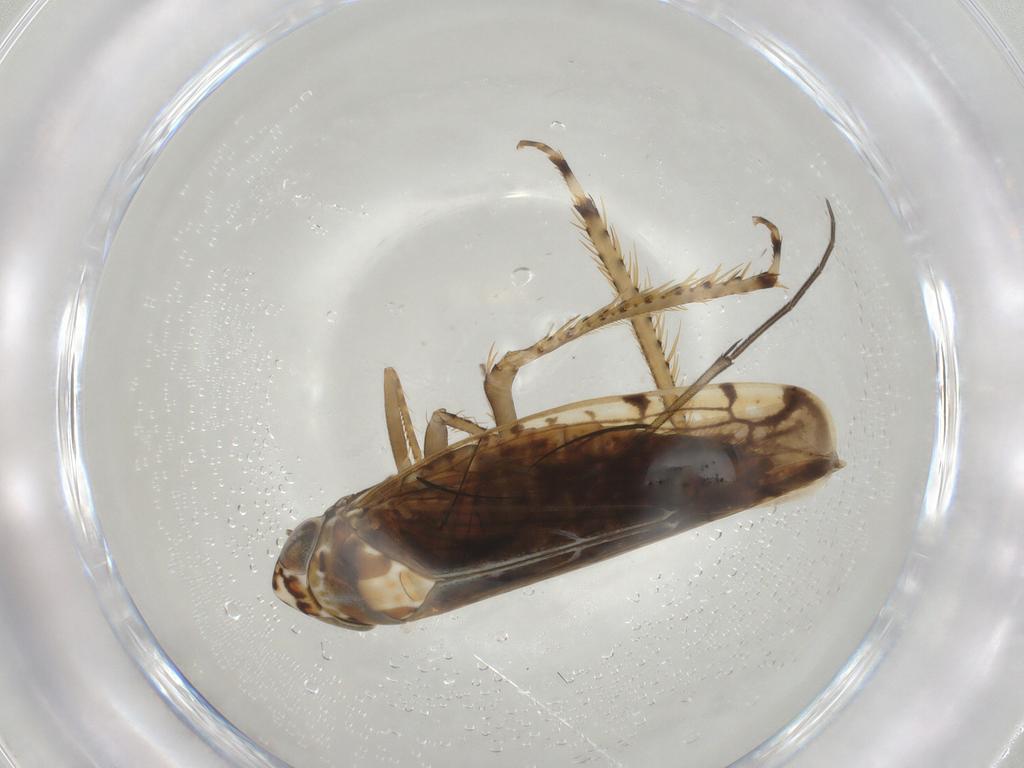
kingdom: Animalia
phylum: Arthropoda
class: Insecta
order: Hemiptera
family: Cicadellidae
